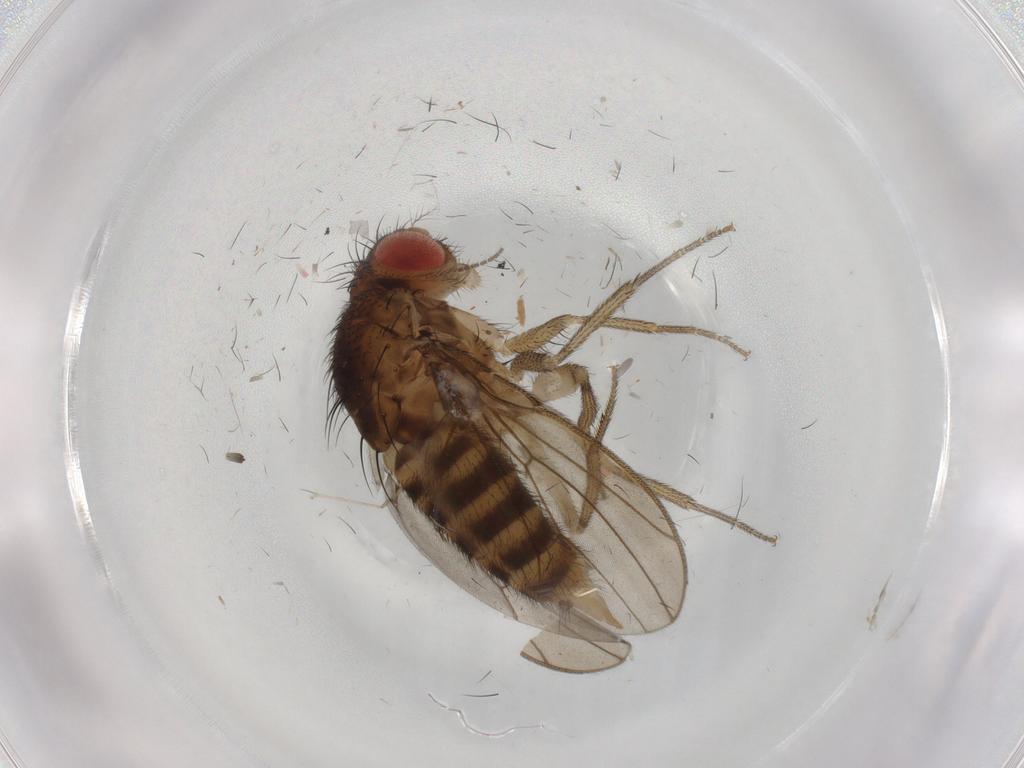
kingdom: Animalia
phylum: Arthropoda
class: Insecta
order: Diptera
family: Drosophilidae
